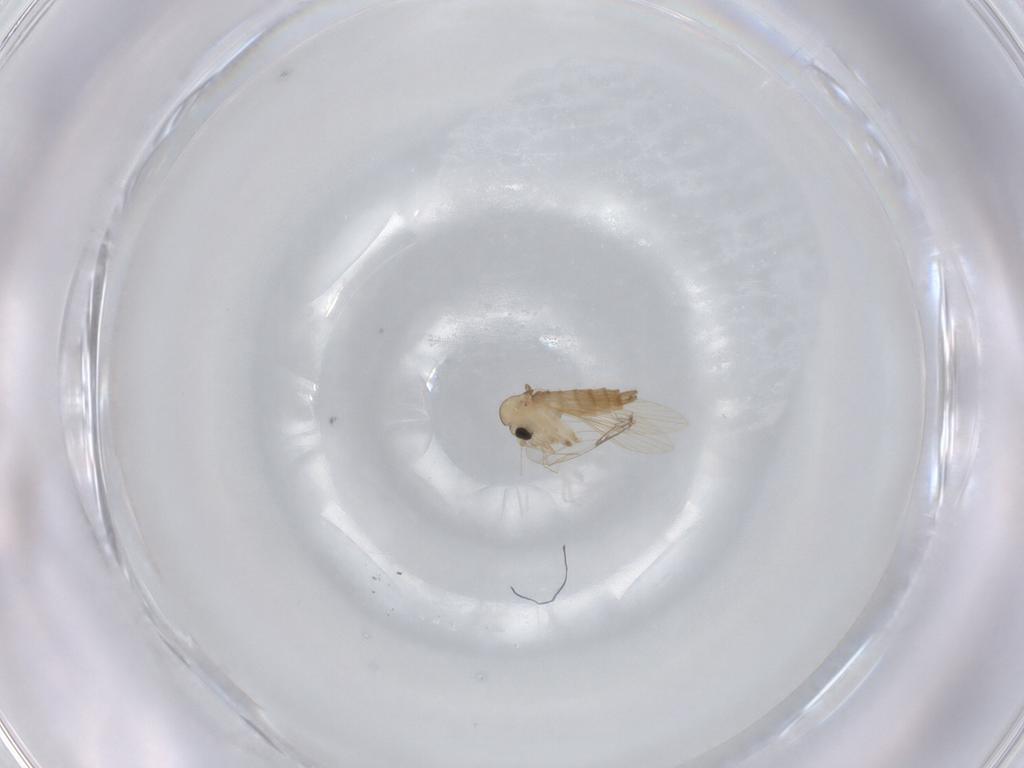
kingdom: Animalia
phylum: Arthropoda
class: Insecta
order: Diptera
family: Psychodidae
